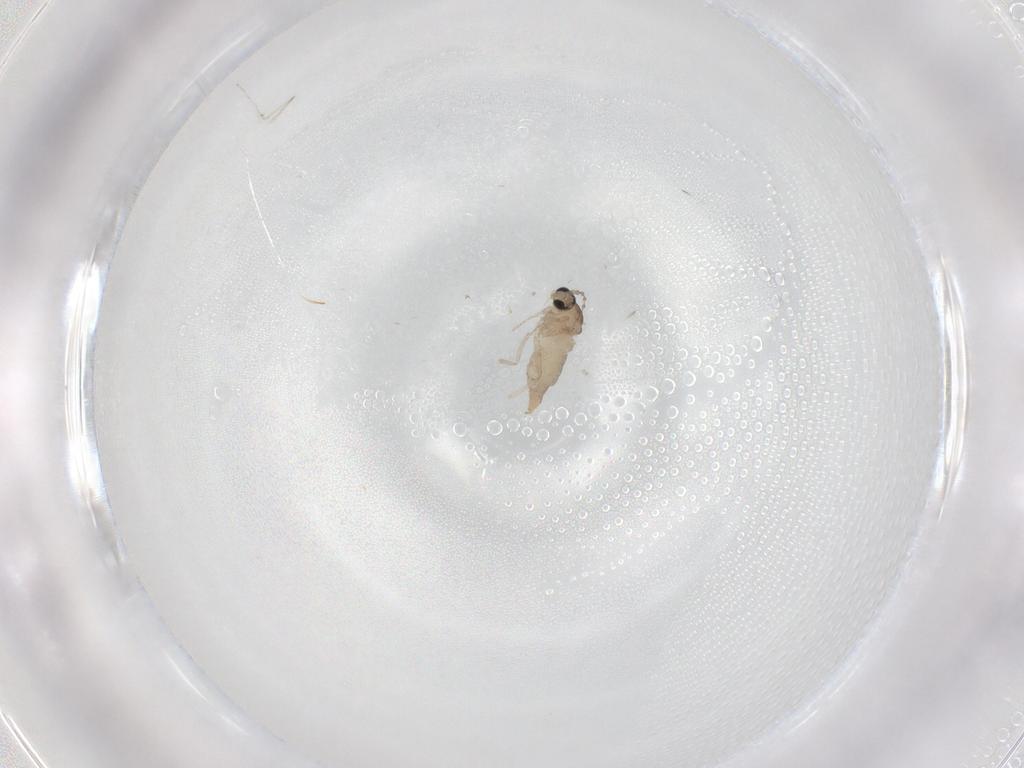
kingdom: Animalia
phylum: Arthropoda
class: Insecta
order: Diptera
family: Cecidomyiidae
